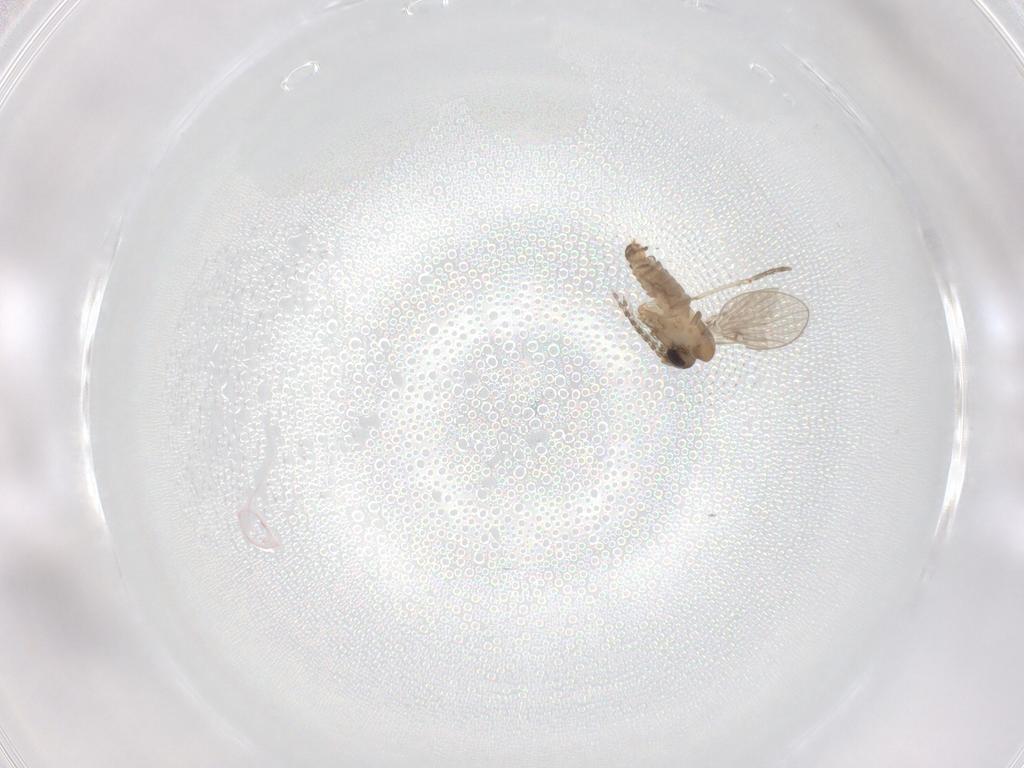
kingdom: Animalia
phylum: Arthropoda
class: Insecta
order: Diptera
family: Psychodidae
